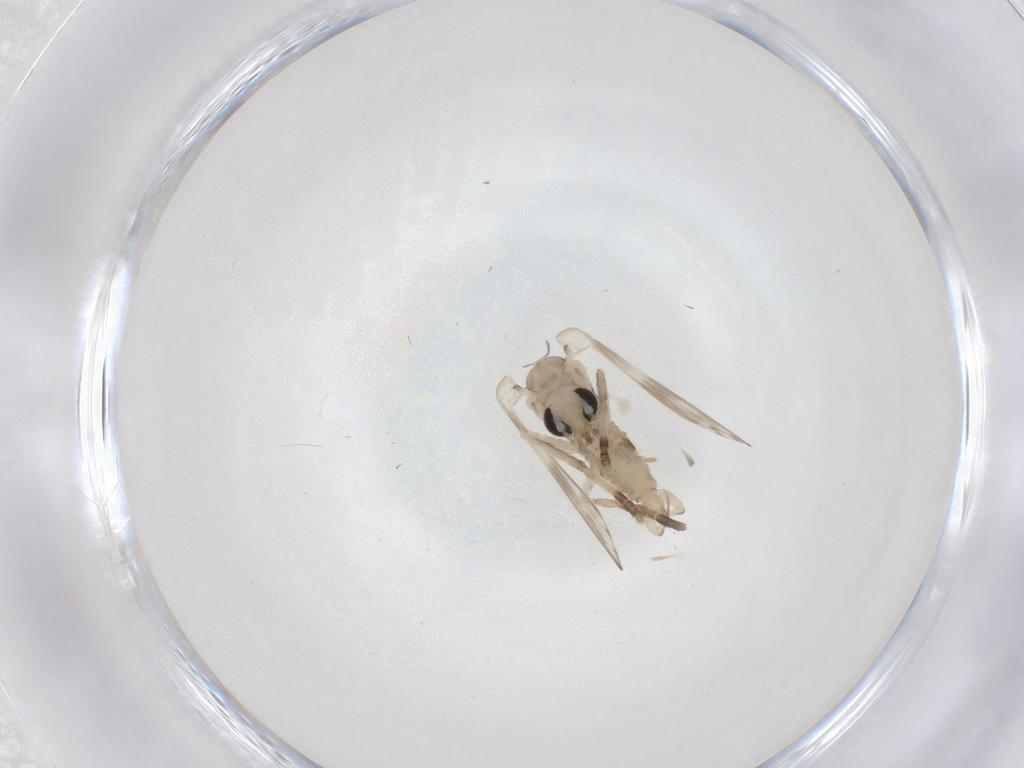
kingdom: Animalia
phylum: Arthropoda
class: Insecta
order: Diptera
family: Psychodidae
